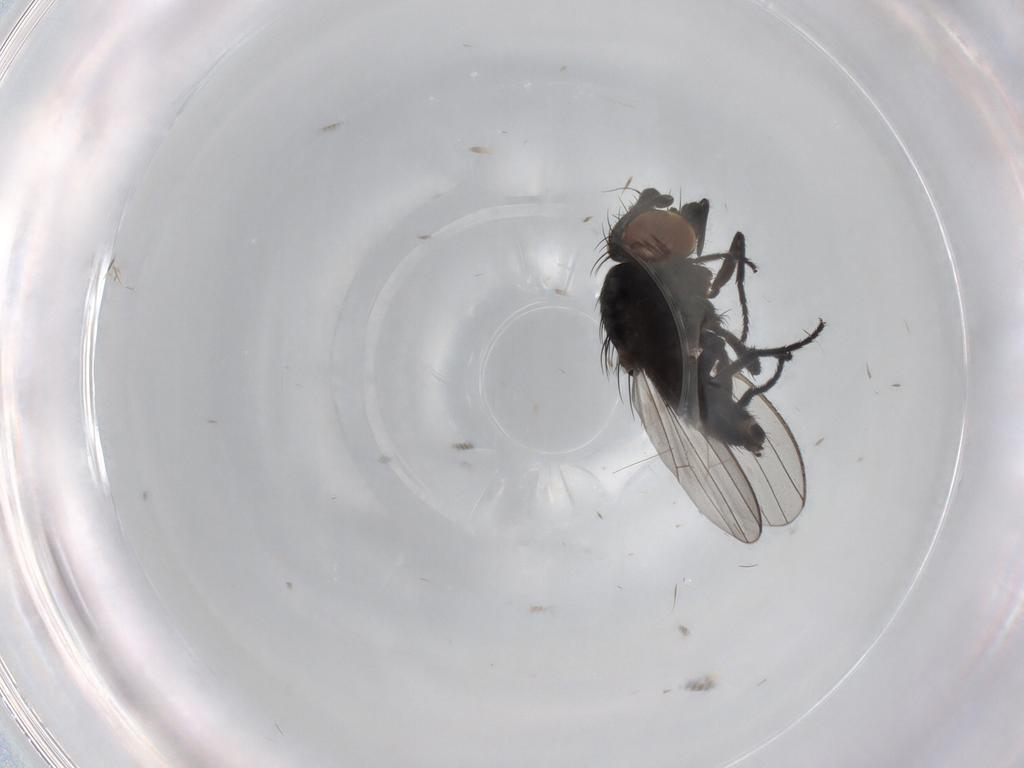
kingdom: Animalia
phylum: Arthropoda
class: Insecta
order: Diptera
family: Milichiidae
